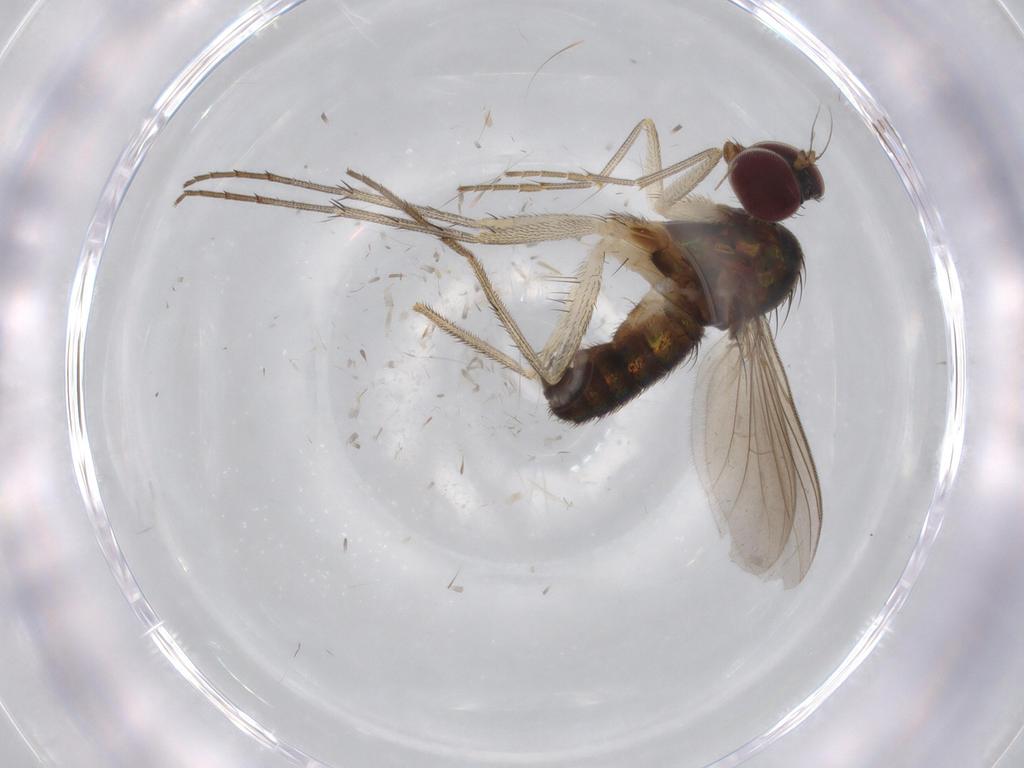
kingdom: Animalia
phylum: Arthropoda
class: Insecta
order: Diptera
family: Dolichopodidae
